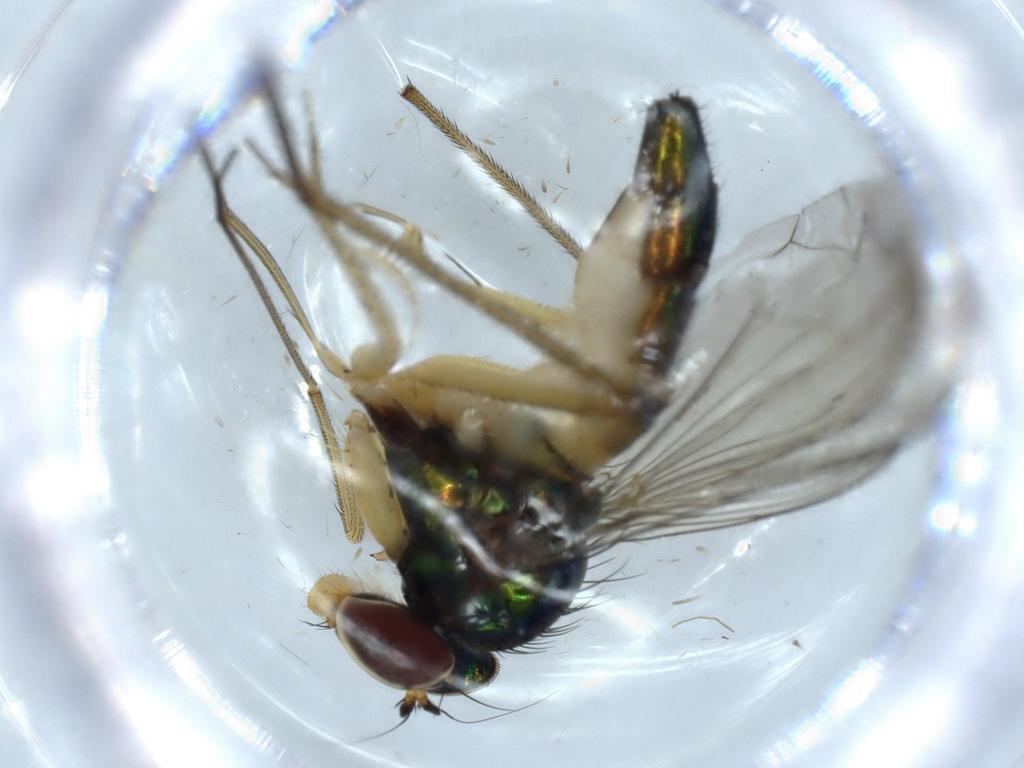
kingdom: Animalia
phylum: Arthropoda
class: Insecta
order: Diptera
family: Dolichopodidae
